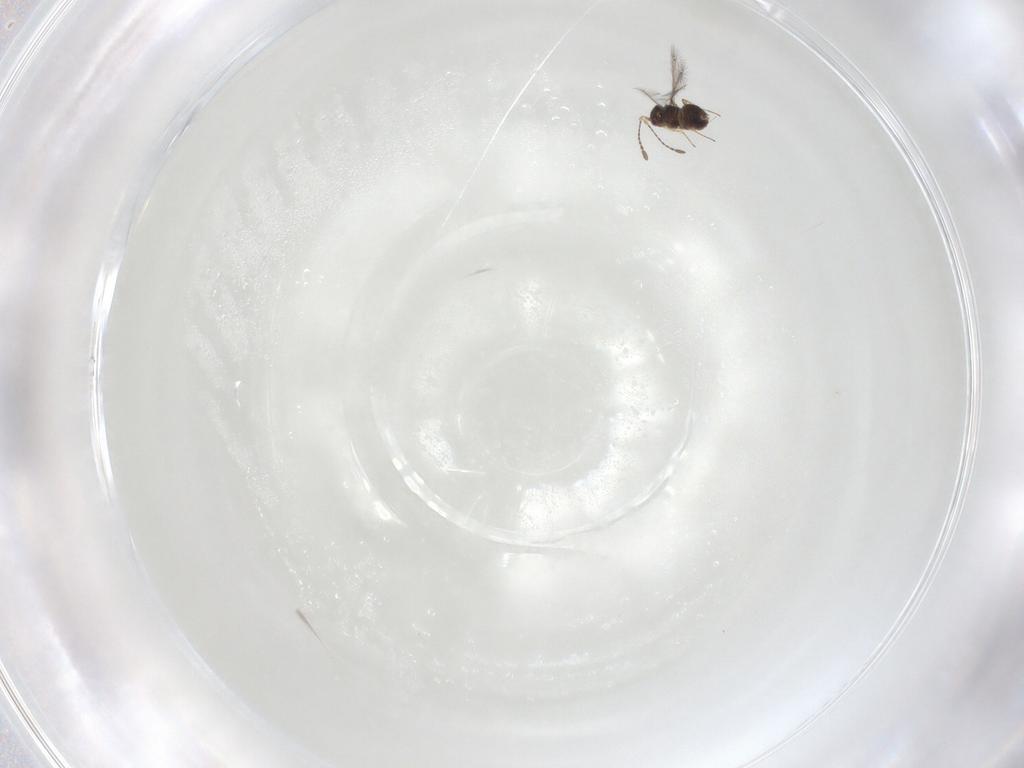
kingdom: Animalia
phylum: Arthropoda
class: Insecta
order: Hymenoptera
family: Mymaridae
